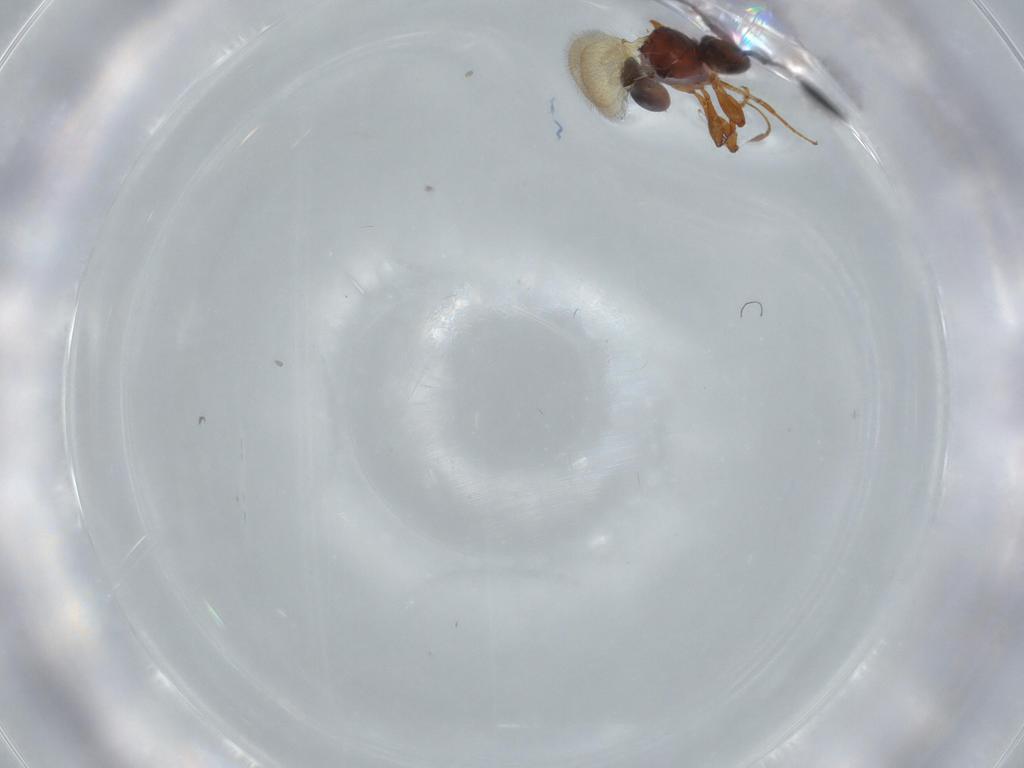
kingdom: Animalia
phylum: Arthropoda
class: Insecta
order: Hymenoptera
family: Diapriidae
